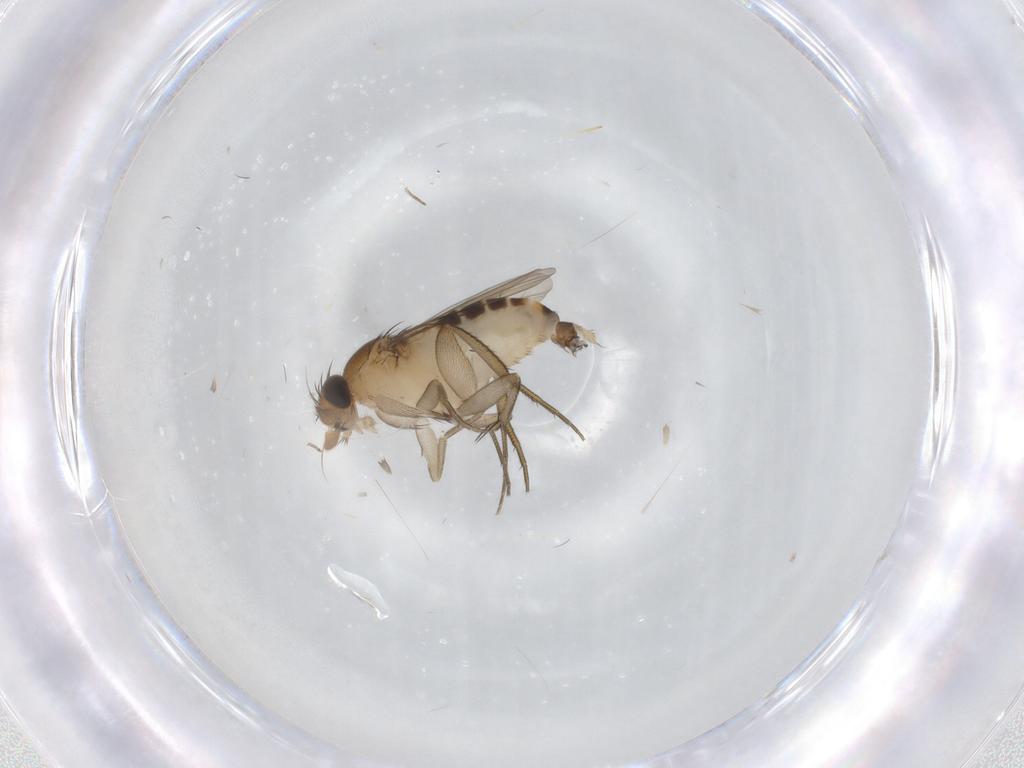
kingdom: Animalia
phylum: Arthropoda
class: Insecta
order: Diptera
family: Phoridae
